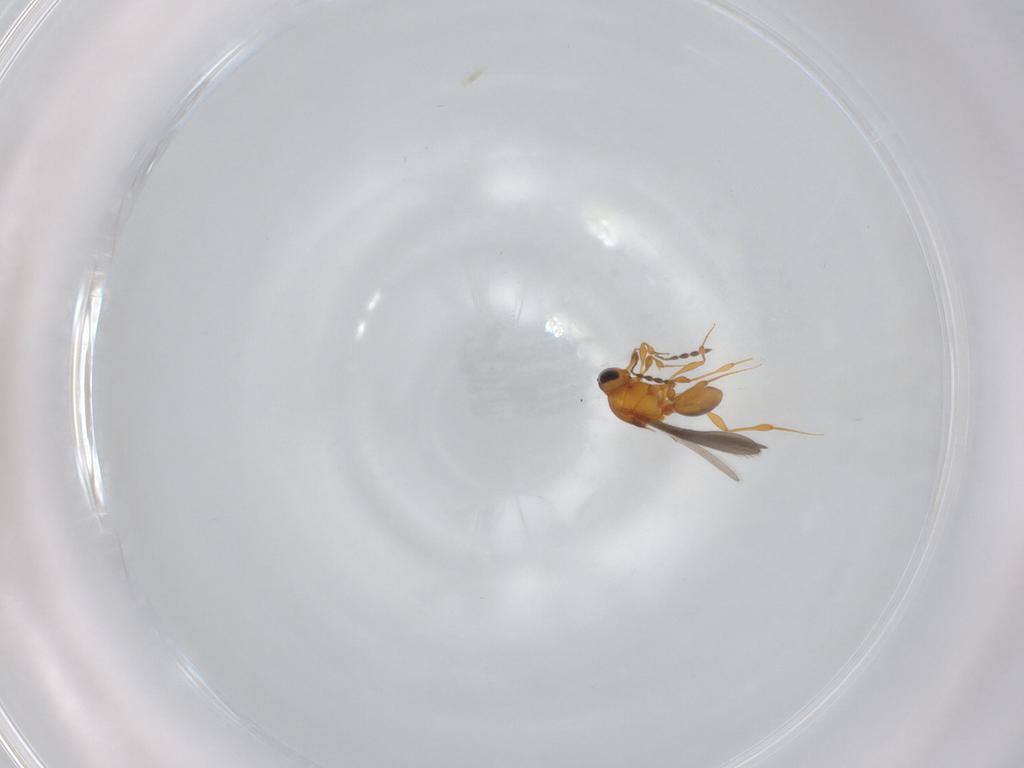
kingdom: Animalia
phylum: Arthropoda
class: Insecta
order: Hymenoptera
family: Platygastridae
